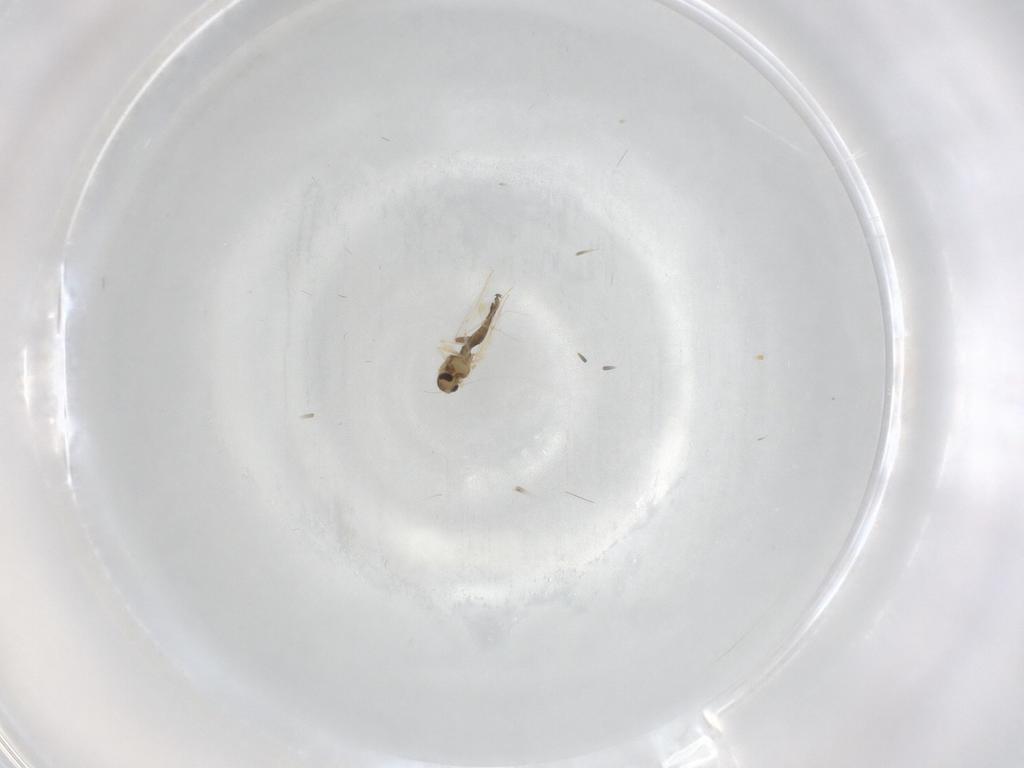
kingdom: Animalia
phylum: Arthropoda
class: Insecta
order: Diptera
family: Chironomidae
